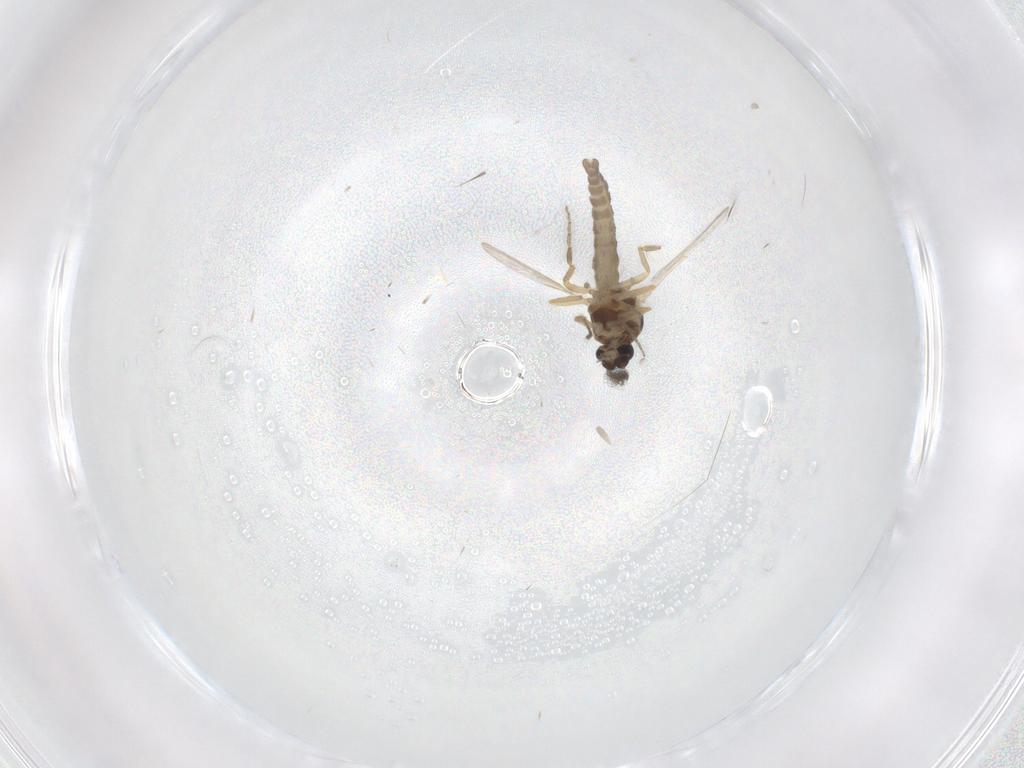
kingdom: Animalia
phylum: Arthropoda
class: Insecta
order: Diptera
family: Ceratopogonidae
